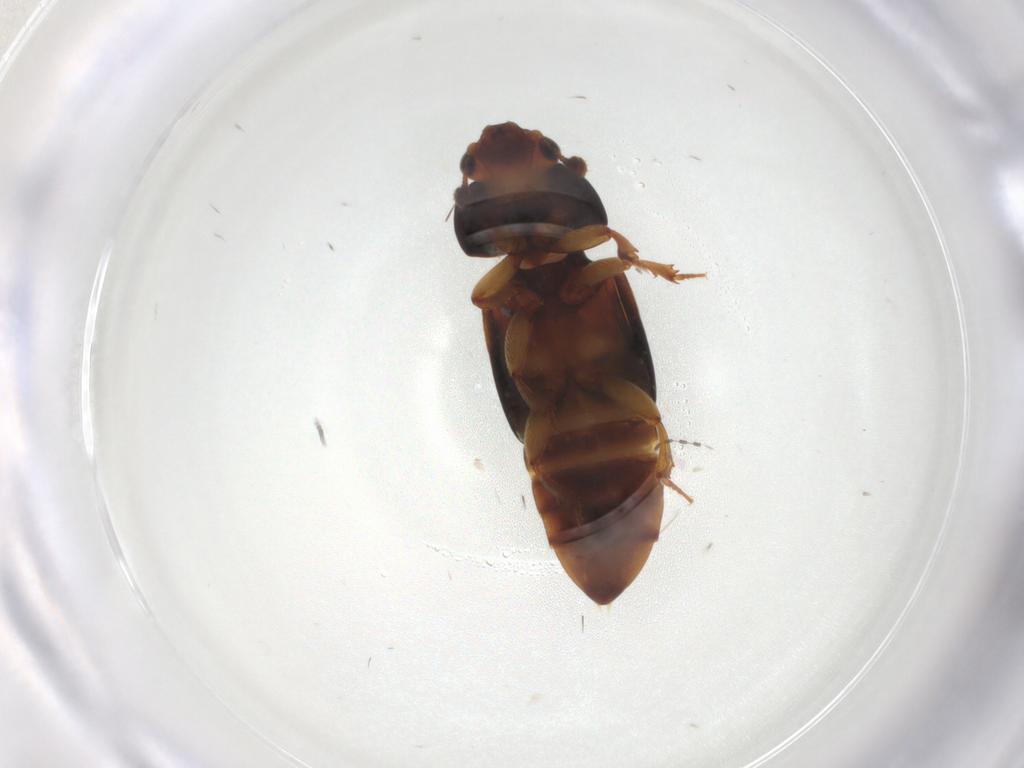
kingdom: Animalia
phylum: Arthropoda
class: Insecta
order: Coleoptera
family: Nitidulidae
